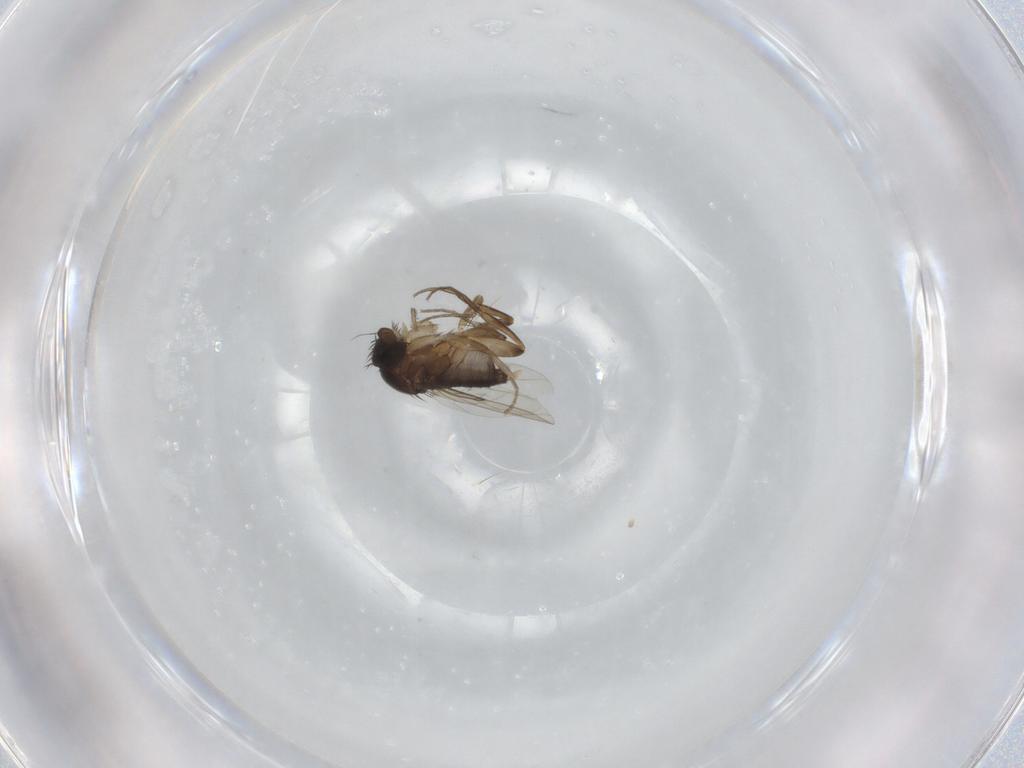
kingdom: Animalia
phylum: Arthropoda
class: Insecta
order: Diptera
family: Phoridae
